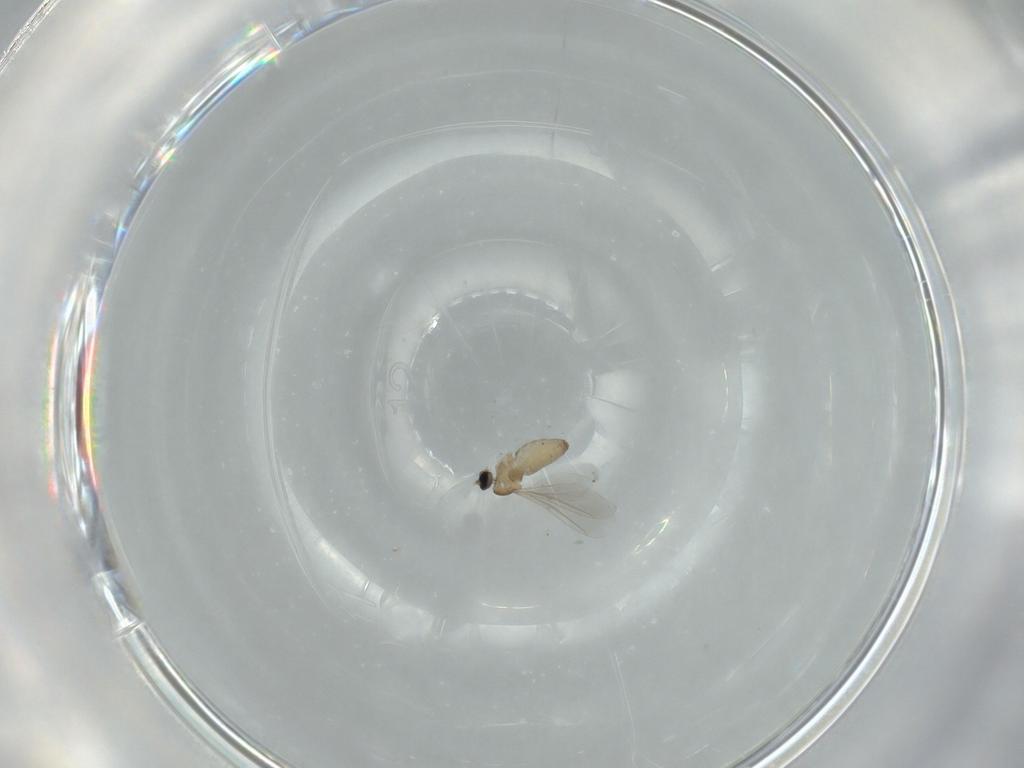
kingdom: Animalia
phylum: Arthropoda
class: Insecta
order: Diptera
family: Cecidomyiidae
